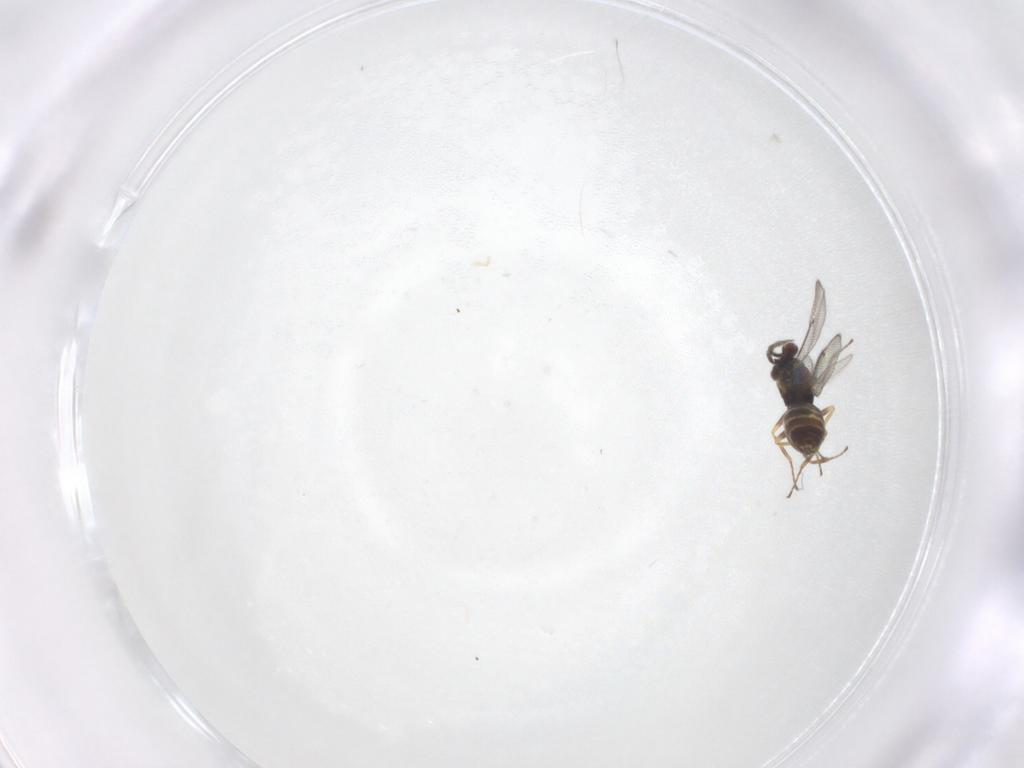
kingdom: Animalia
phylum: Arthropoda
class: Insecta
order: Hymenoptera
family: Eulophidae
